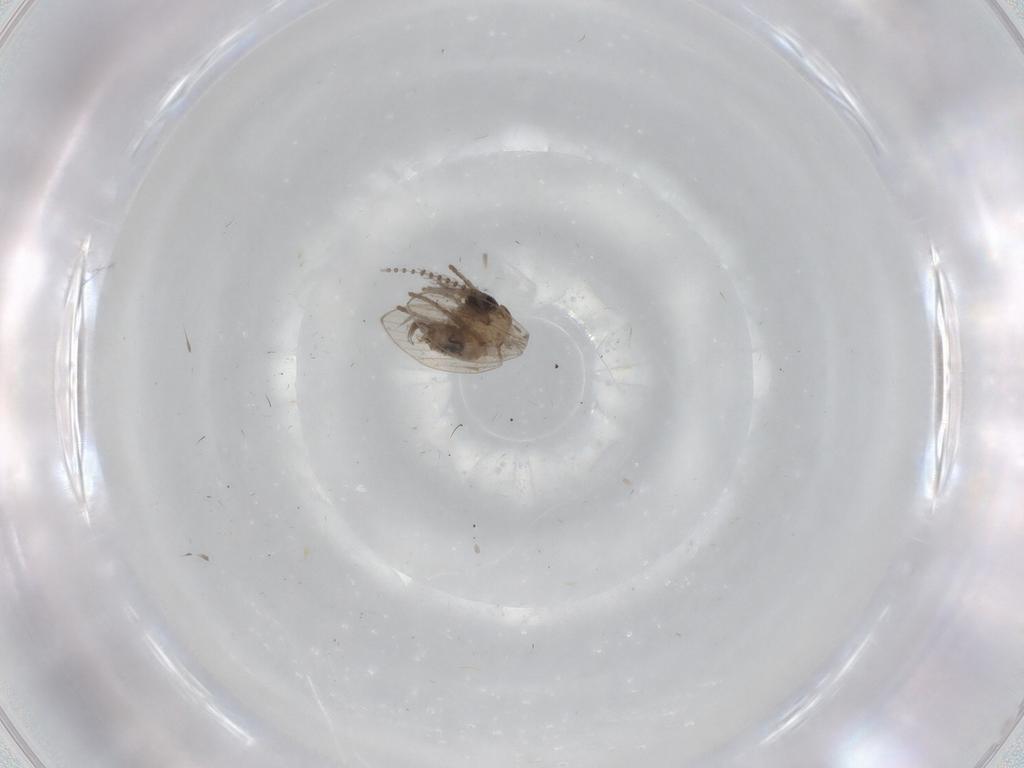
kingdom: Animalia
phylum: Arthropoda
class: Insecta
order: Diptera
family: Psychodidae
